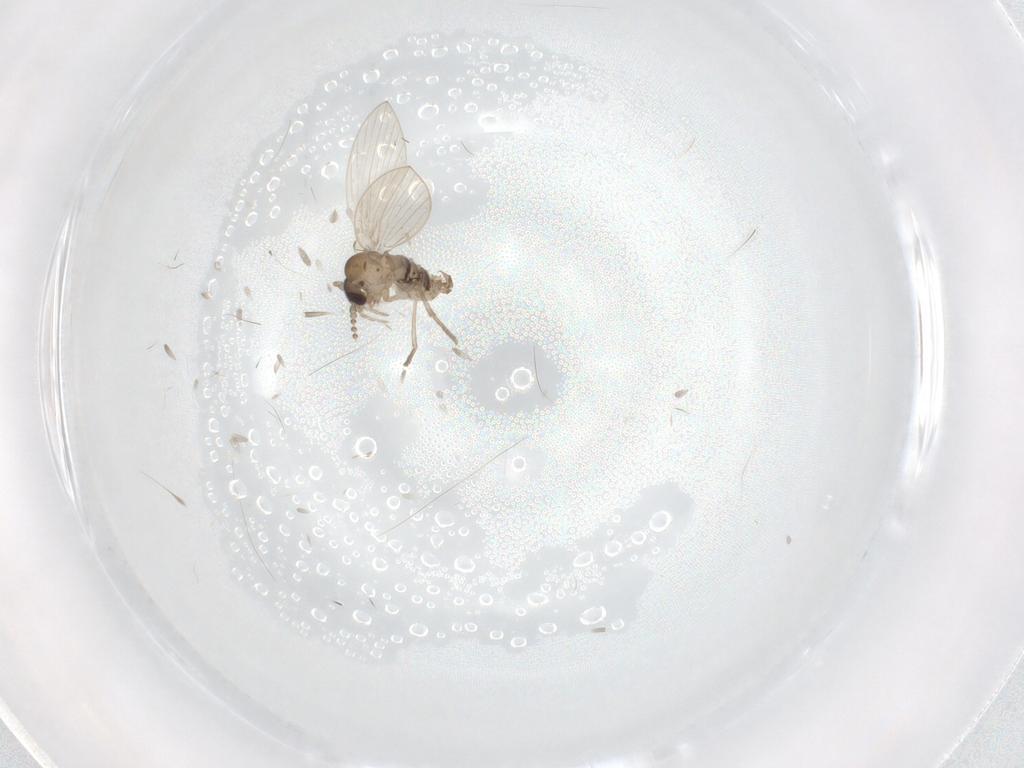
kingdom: Animalia
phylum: Arthropoda
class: Insecta
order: Diptera
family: Psychodidae
